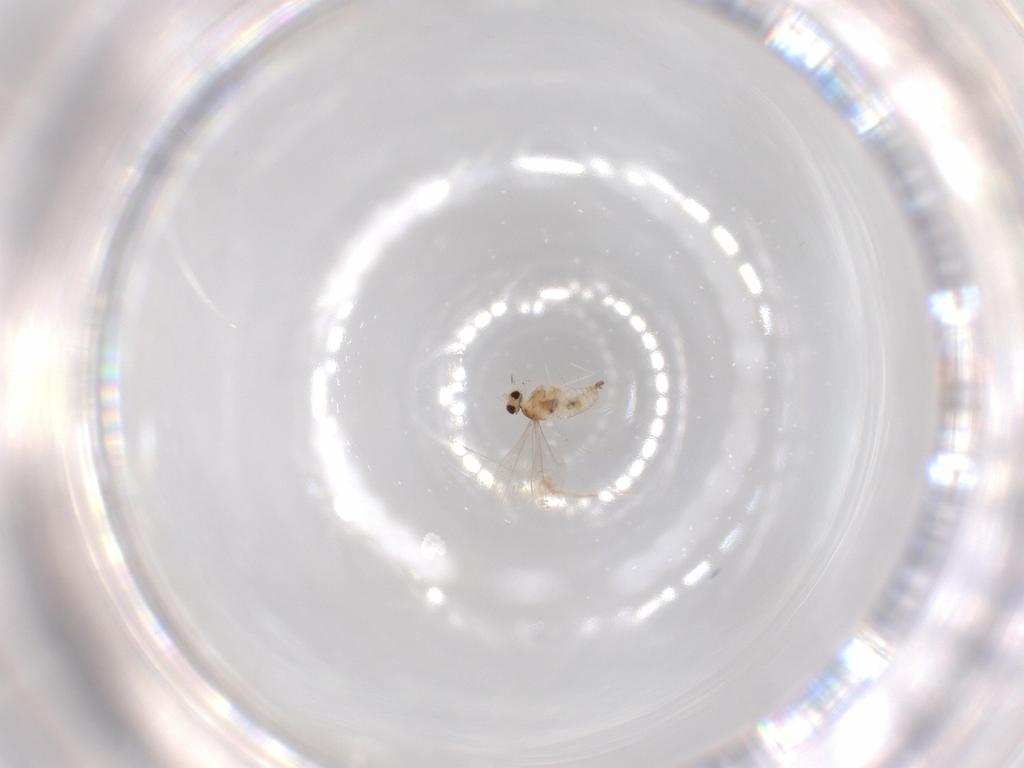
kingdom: Animalia
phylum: Arthropoda
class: Insecta
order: Diptera
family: Cecidomyiidae
